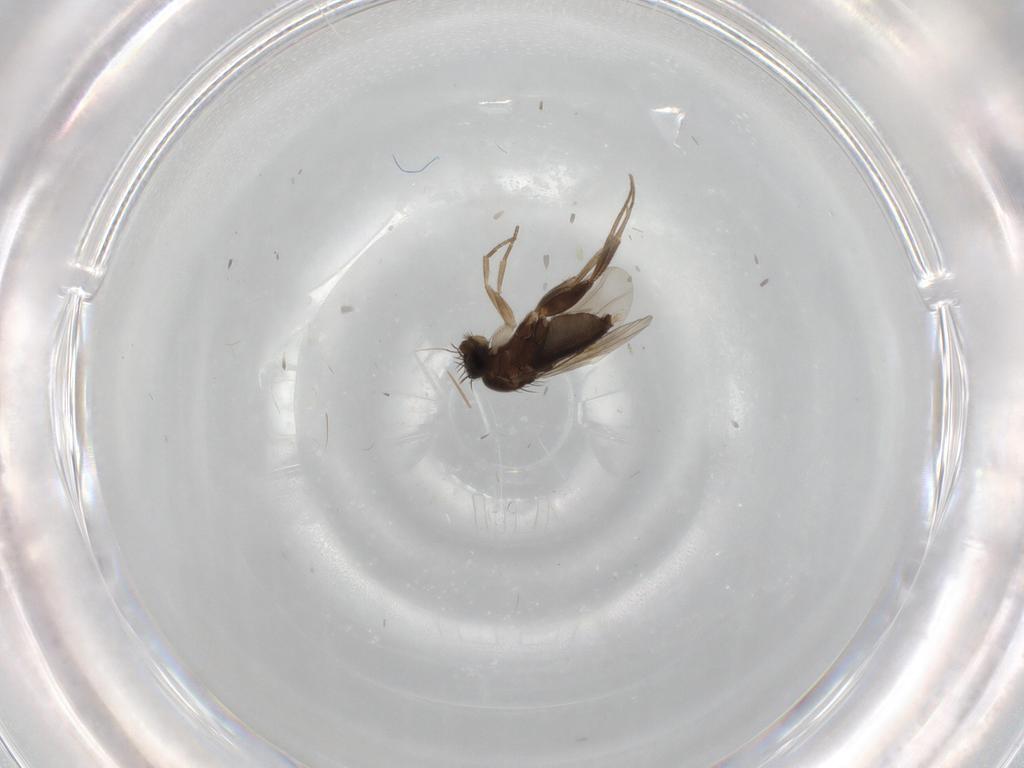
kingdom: Animalia
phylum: Arthropoda
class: Insecta
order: Diptera
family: Phoridae
